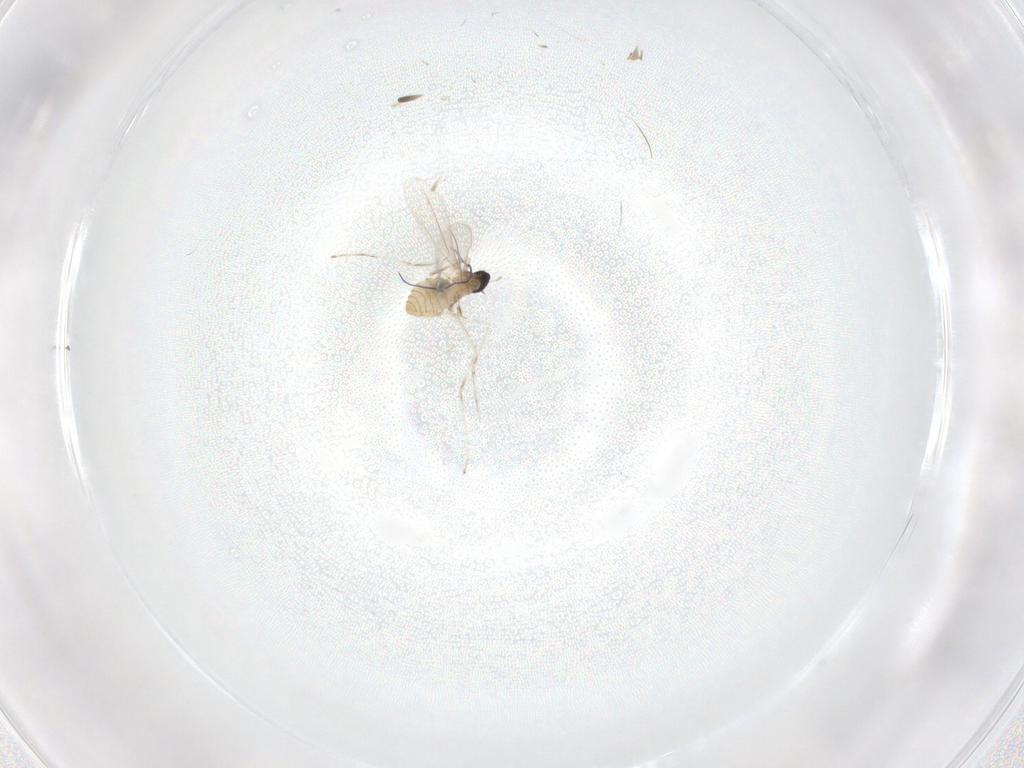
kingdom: Animalia
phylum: Arthropoda
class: Insecta
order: Diptera
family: Cecidomyiidae
